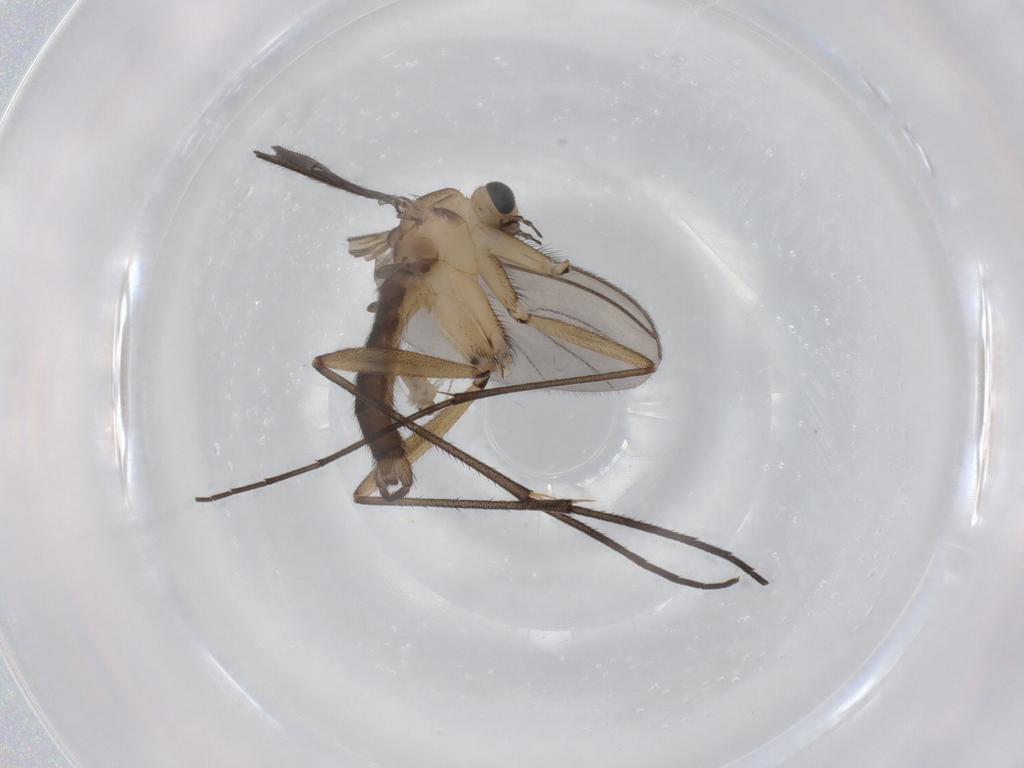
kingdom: Animalia
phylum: Arthropoda
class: Insecta
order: Diptera
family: Cecidomyiidae
